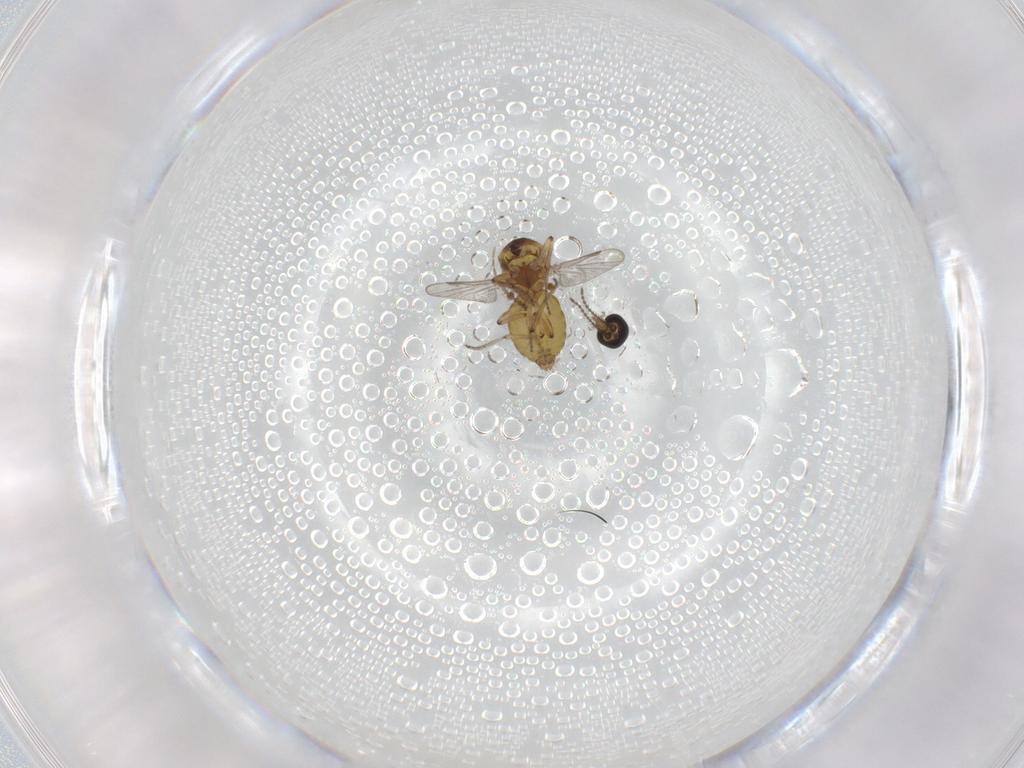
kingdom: Animalia
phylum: Arthropoda
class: Insecta
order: Diptera
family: Ceratopogonidae
